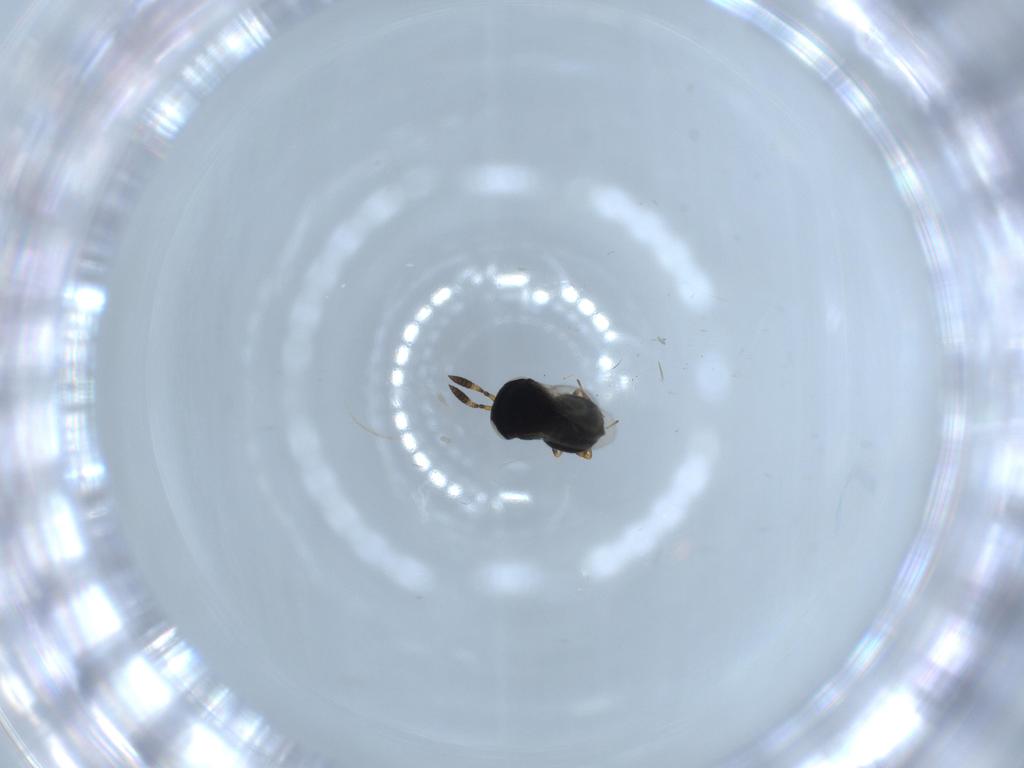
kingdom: Animalia
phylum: Arthropoda
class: Insecta
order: Hymenoptera
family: Scelionidae
